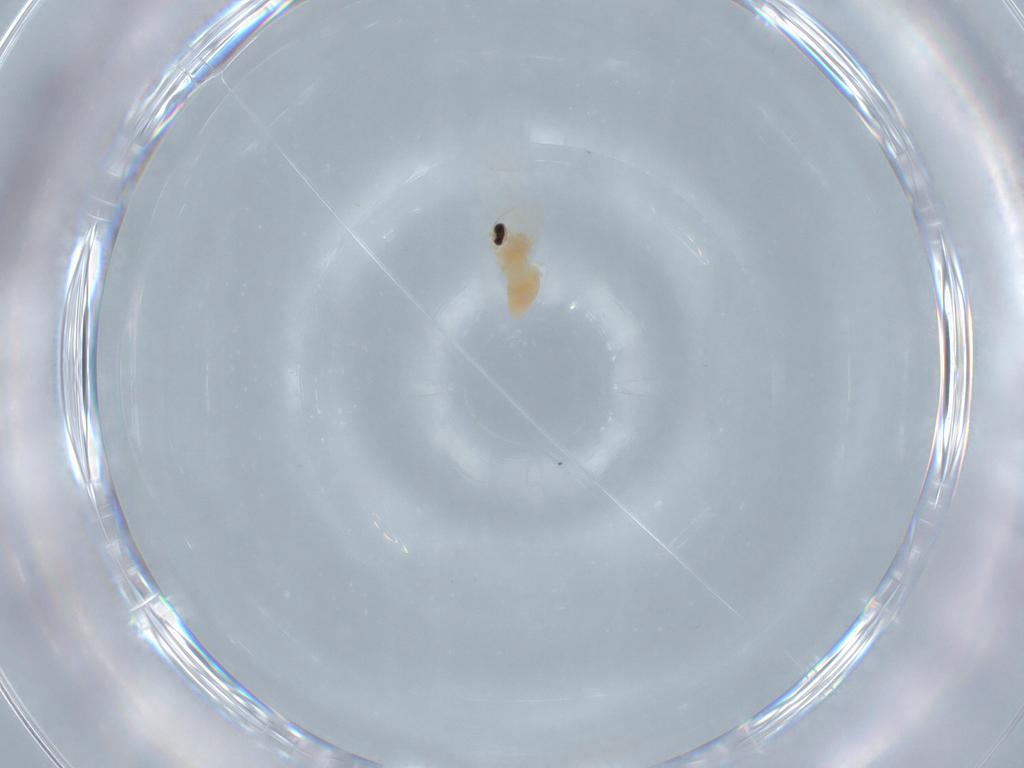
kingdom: Animalia
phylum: Arthropoda
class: Insecta
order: Diptera
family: Cecidomyiidae
